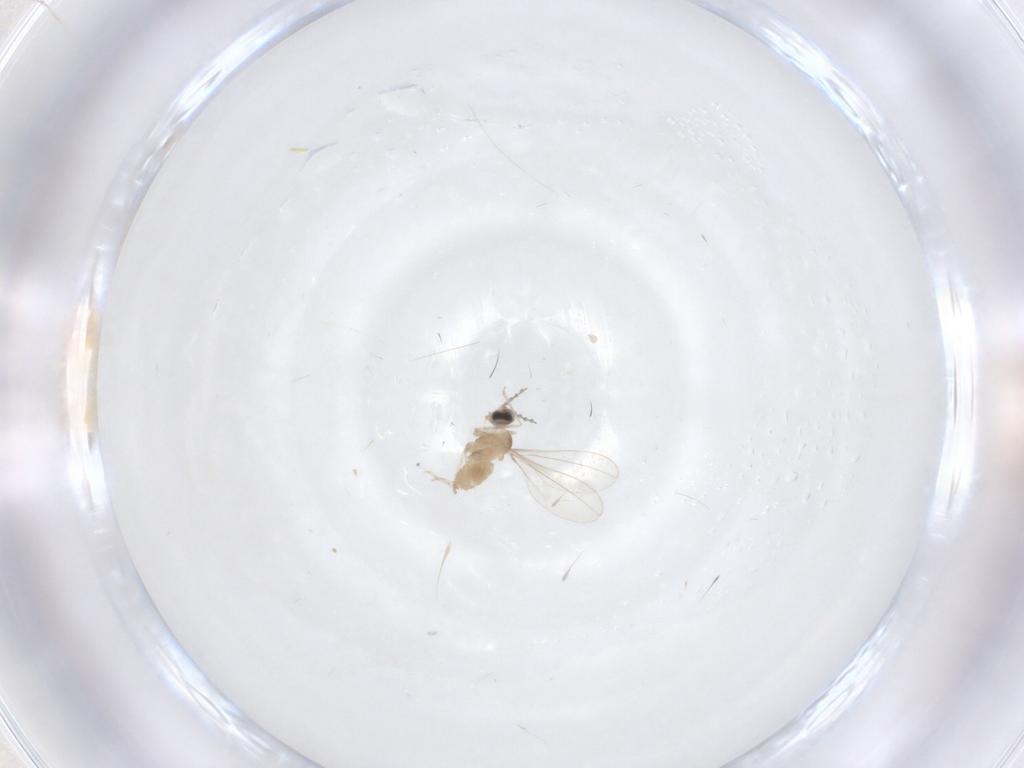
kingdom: Animalia
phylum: Arthropoda
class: Insecta
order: Diptera
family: Cecidomyiidae
